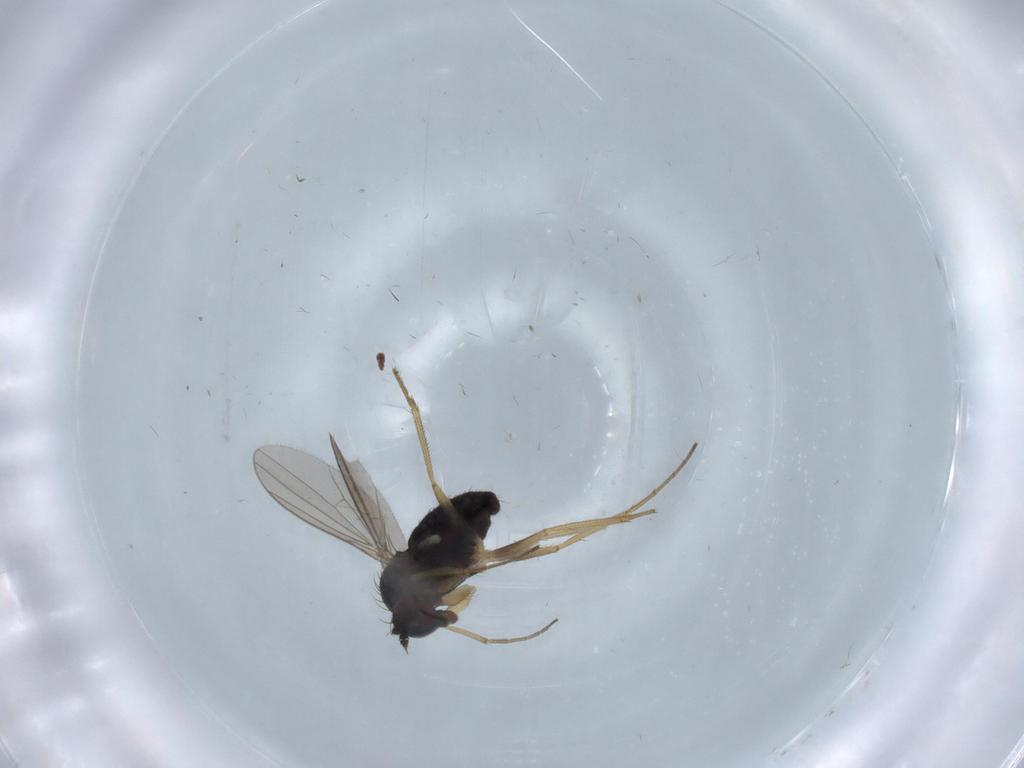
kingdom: Animalia
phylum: Arthropoda
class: Insecta
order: Diptera
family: Dolichopodidae
